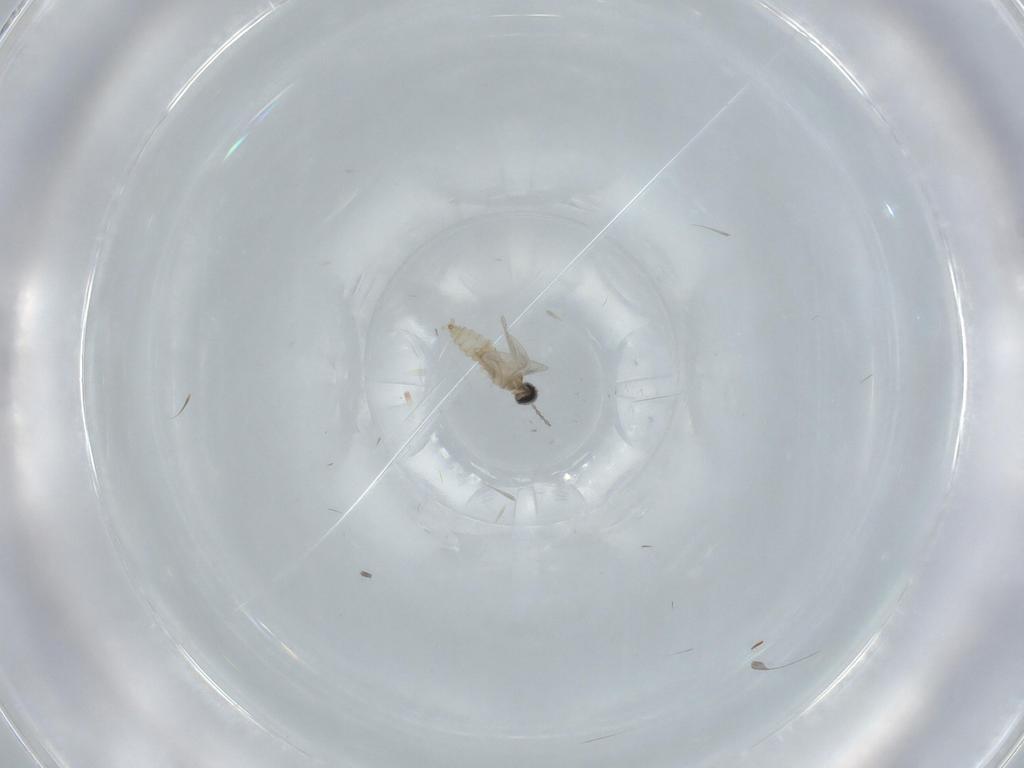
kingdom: Animalia
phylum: Arthropoda
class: Insecta
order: Diptera
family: Cecidomyiidae
